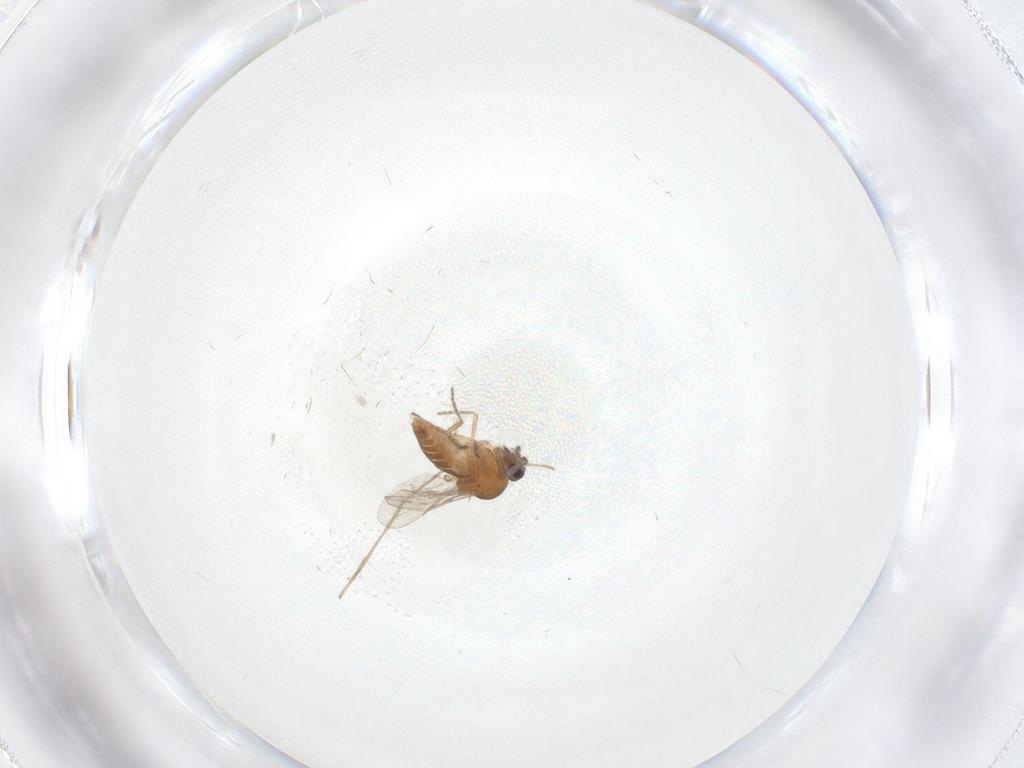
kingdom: Animalia
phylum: Arthropoda
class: Insecta
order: Diptera
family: Ceratopogonidae
